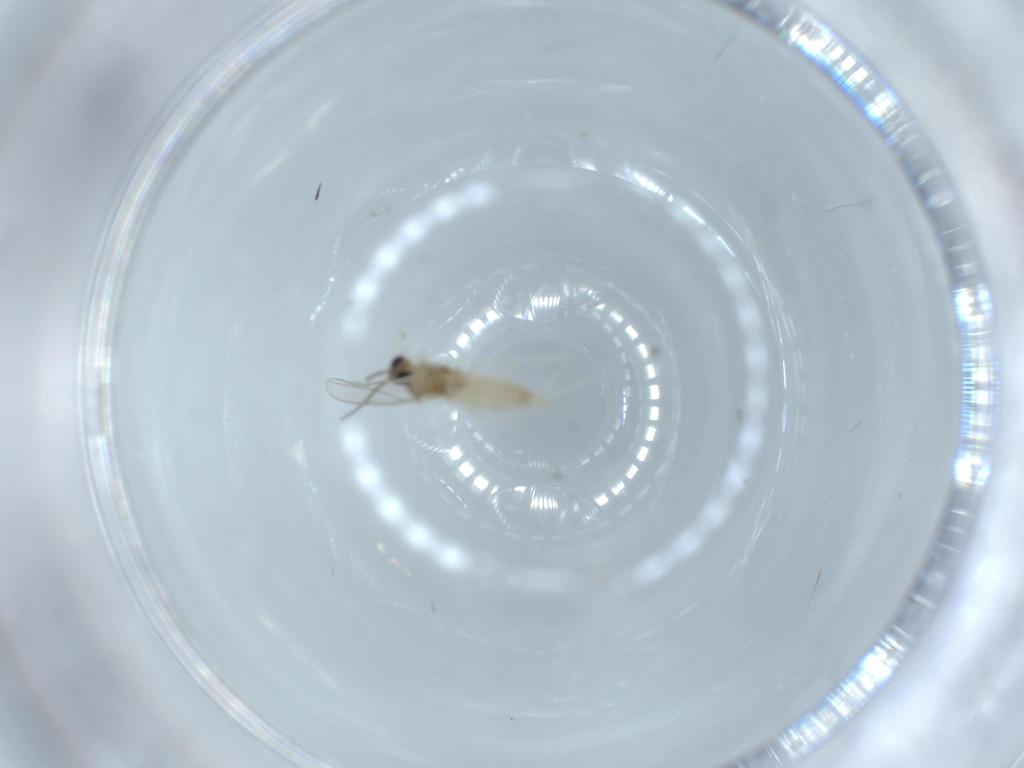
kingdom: Animalia
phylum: Arthropoda
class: Insecta
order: Diptera
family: Cecidomyiidae
